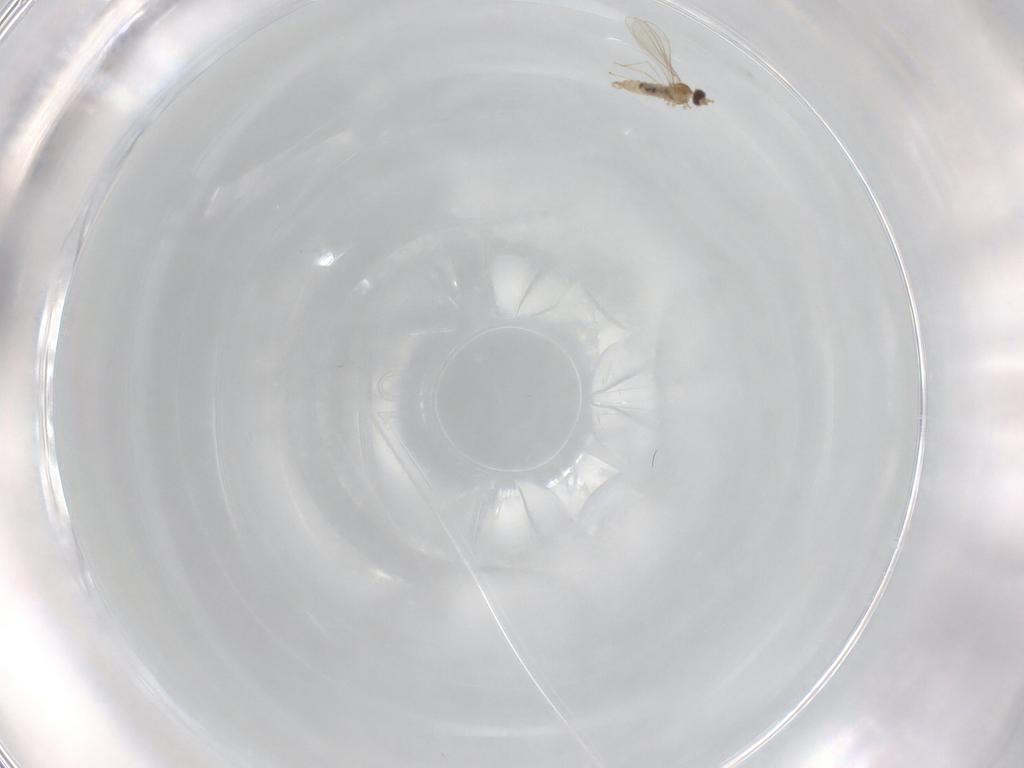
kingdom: Animalia
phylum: Arthropoda
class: Insecta
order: Diptera
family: Cecidomyiidae
